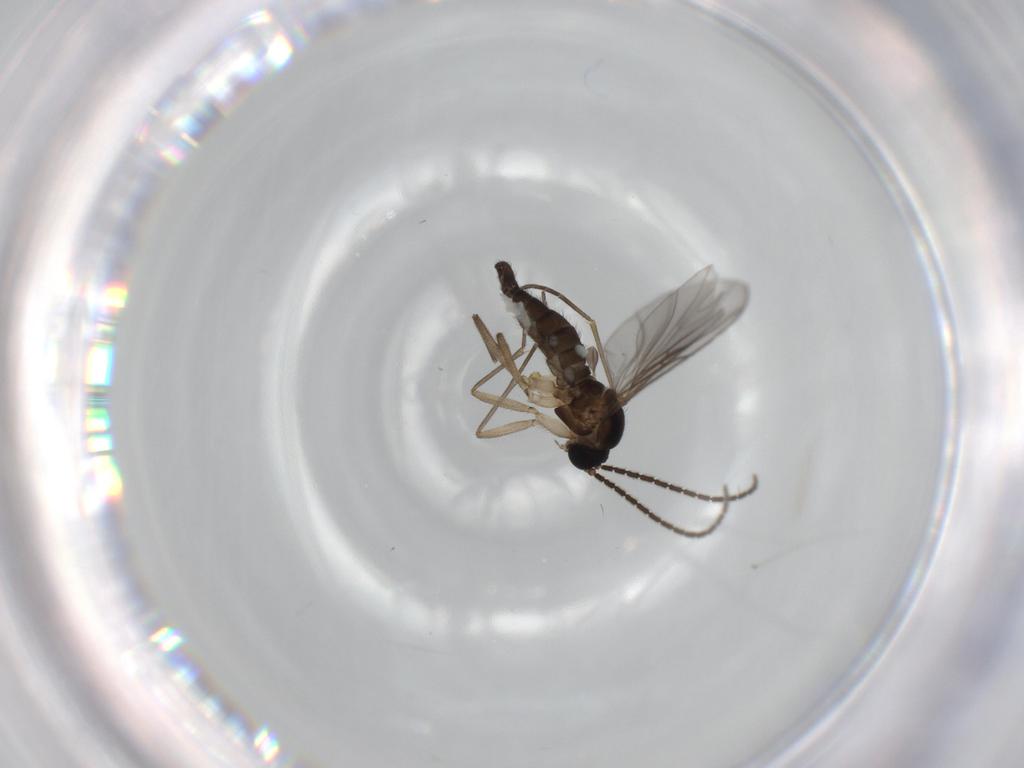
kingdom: Animalia
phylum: Arthropoda
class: Insecta
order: Diptera
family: Sciaridae
